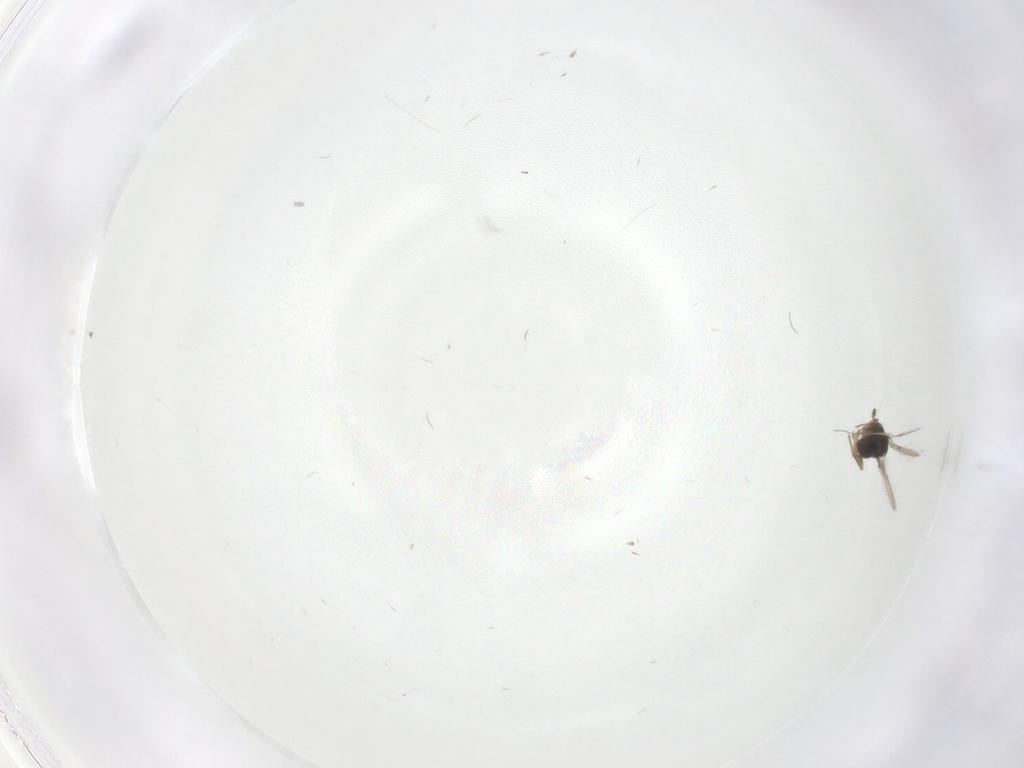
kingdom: Animalia
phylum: Arthropoda
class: Insecta
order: Hymenoptera
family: Scelionidae
